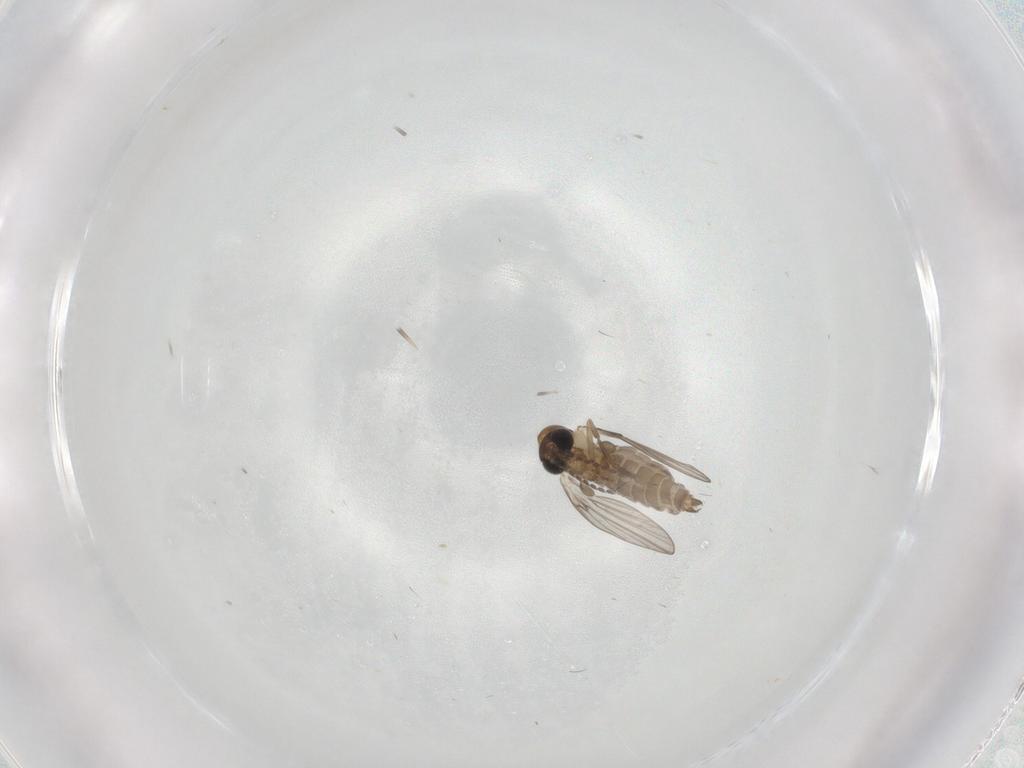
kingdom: Animalia
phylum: Arthropoda
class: Insecta
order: Diptera
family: Psychodidae
